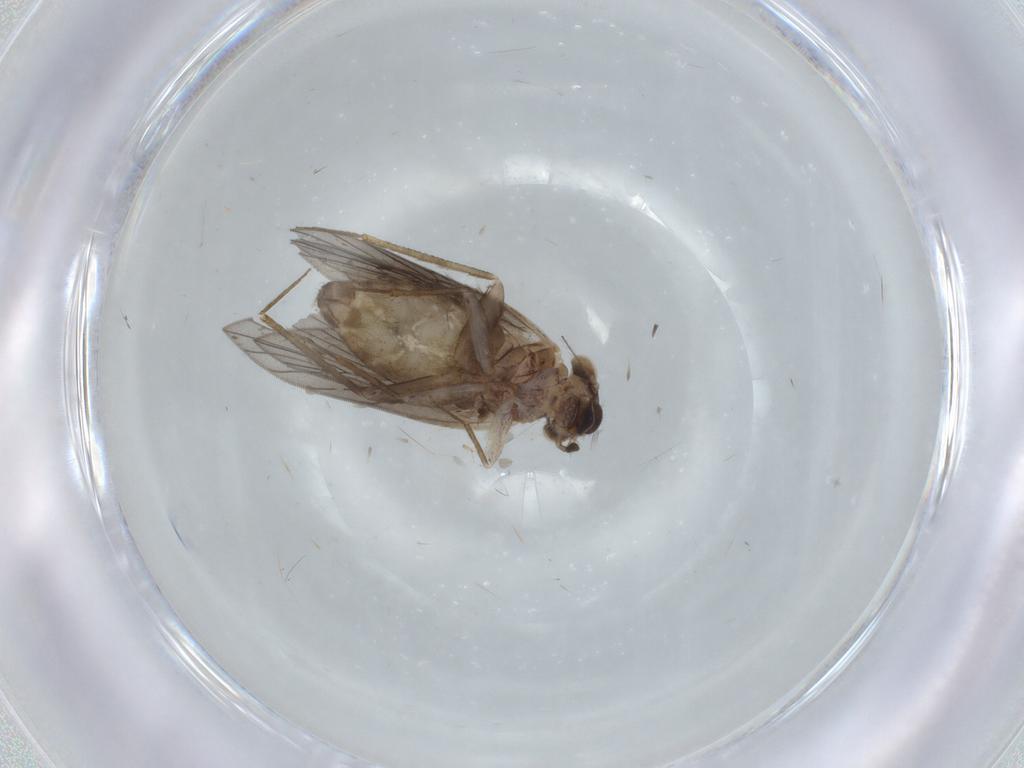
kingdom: Animalia
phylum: Arthropoda
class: Insecta
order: Psocodea
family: Lepidopsocidae
